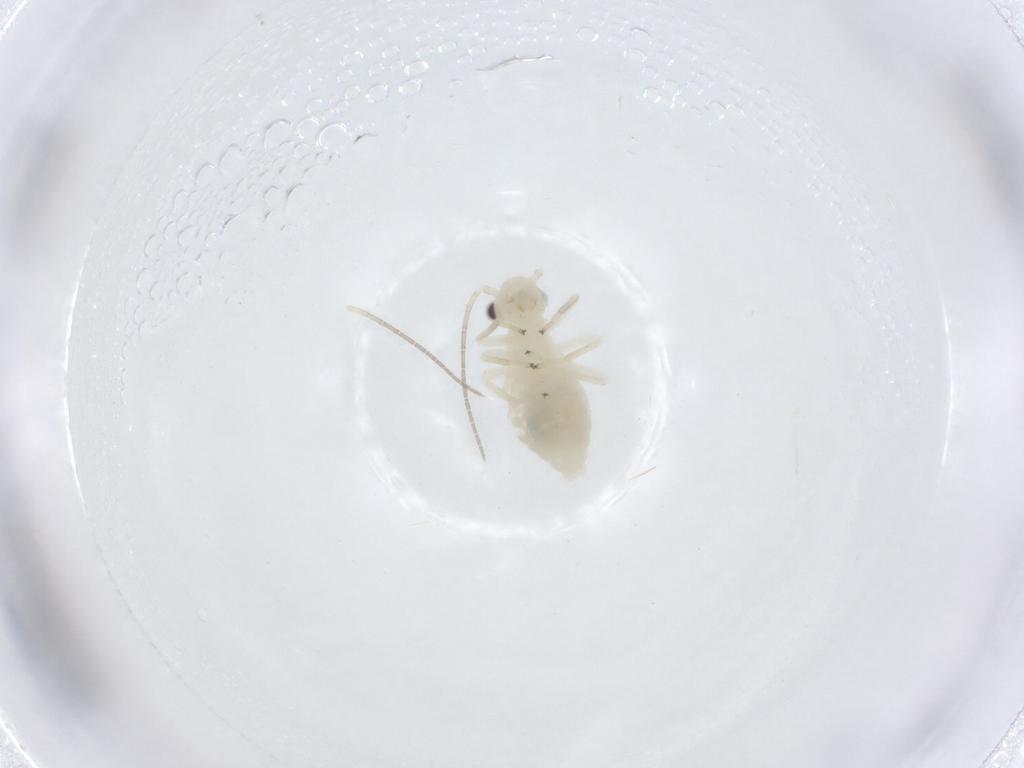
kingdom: Animalia
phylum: Arthropoda
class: Insecta
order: Psocodea
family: Caeciliusidae
